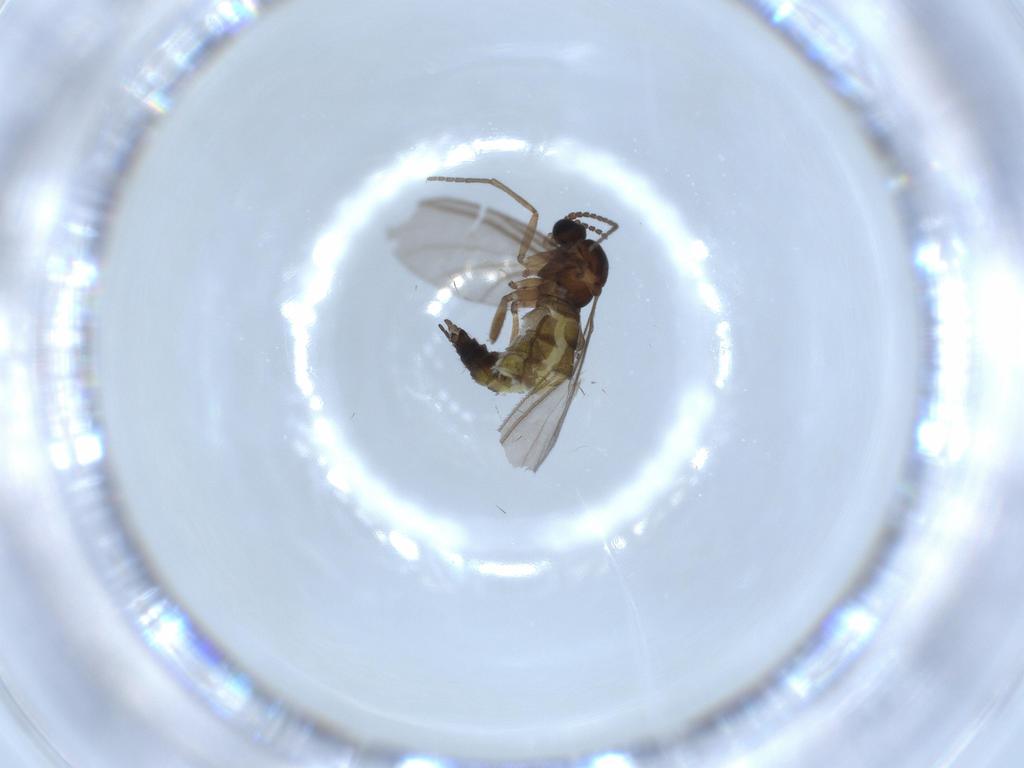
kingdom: Animalia
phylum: Arthropoda
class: Insecta
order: Diptera
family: Sciaridae
